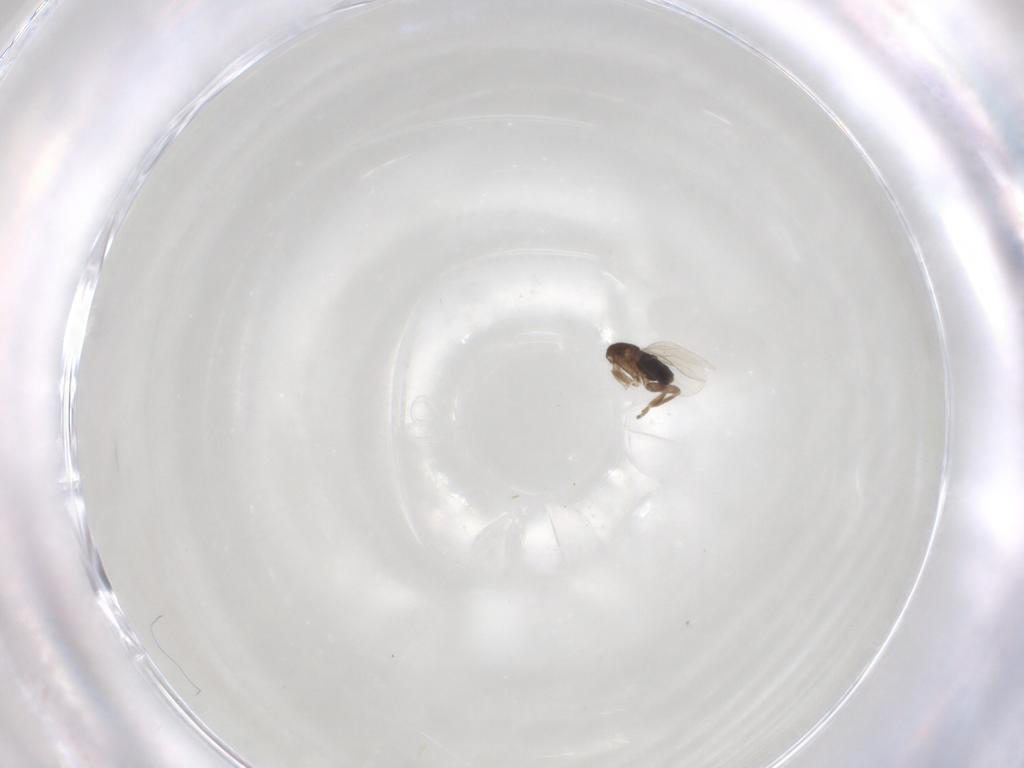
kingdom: Animalia
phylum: Arthropoda
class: Insecta
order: Diptera
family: Phoridae
